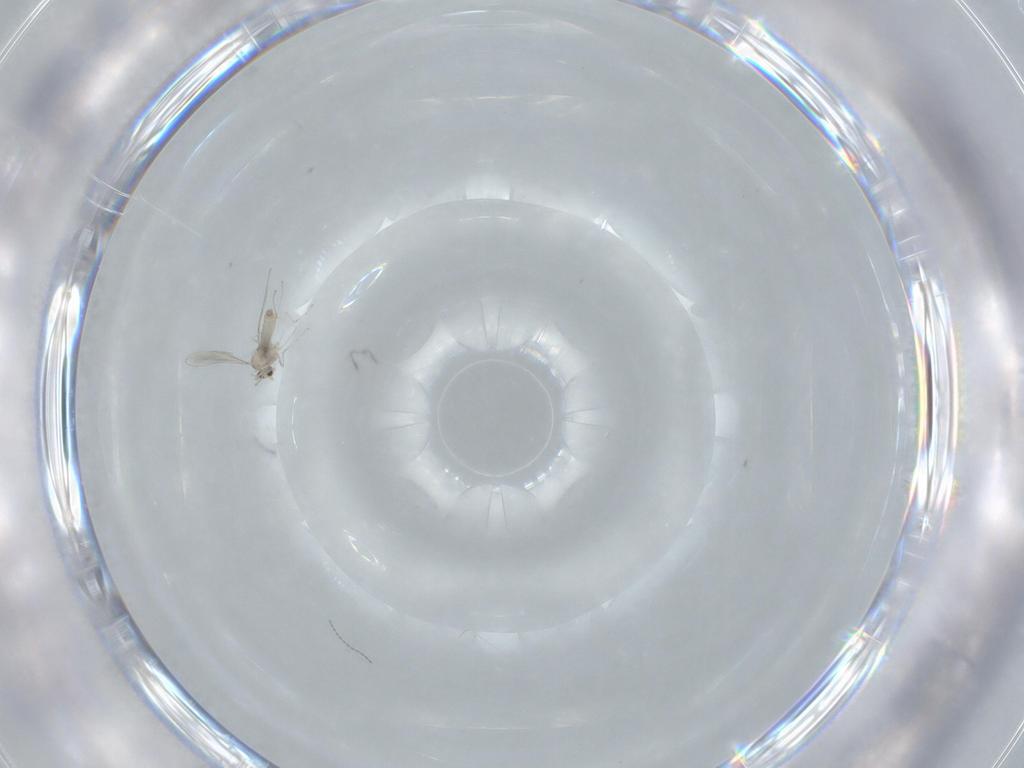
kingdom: Animalia
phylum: Arthropoda
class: Insecta
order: Diptera
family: Cecidomyiidae
